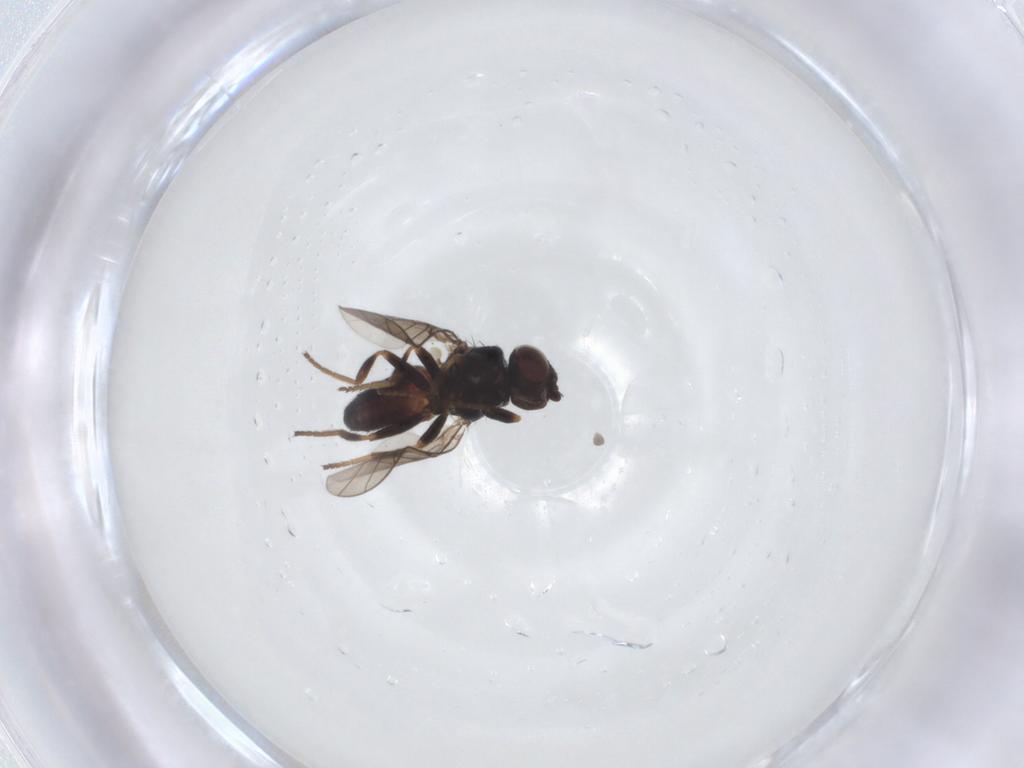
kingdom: Animalia
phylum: Arthropoda
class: Insecta
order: Diptera
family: Chloropidae
